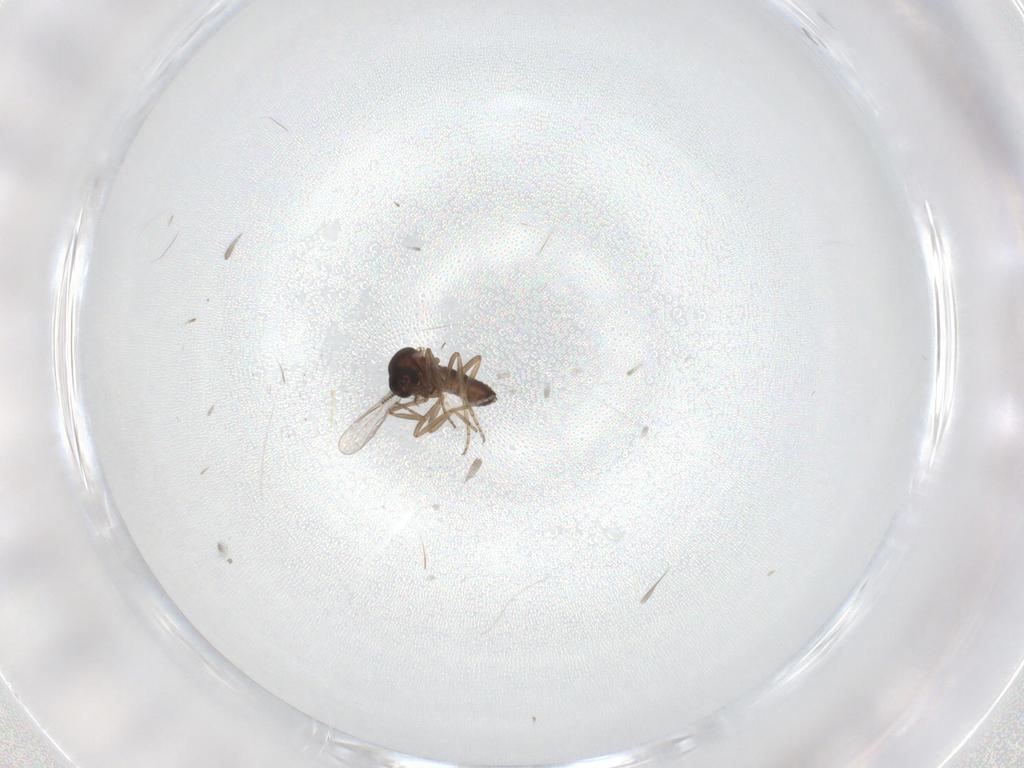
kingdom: Animalia
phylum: Arthropoda
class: Insecta
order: Diptera
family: Ceratopogonidae
